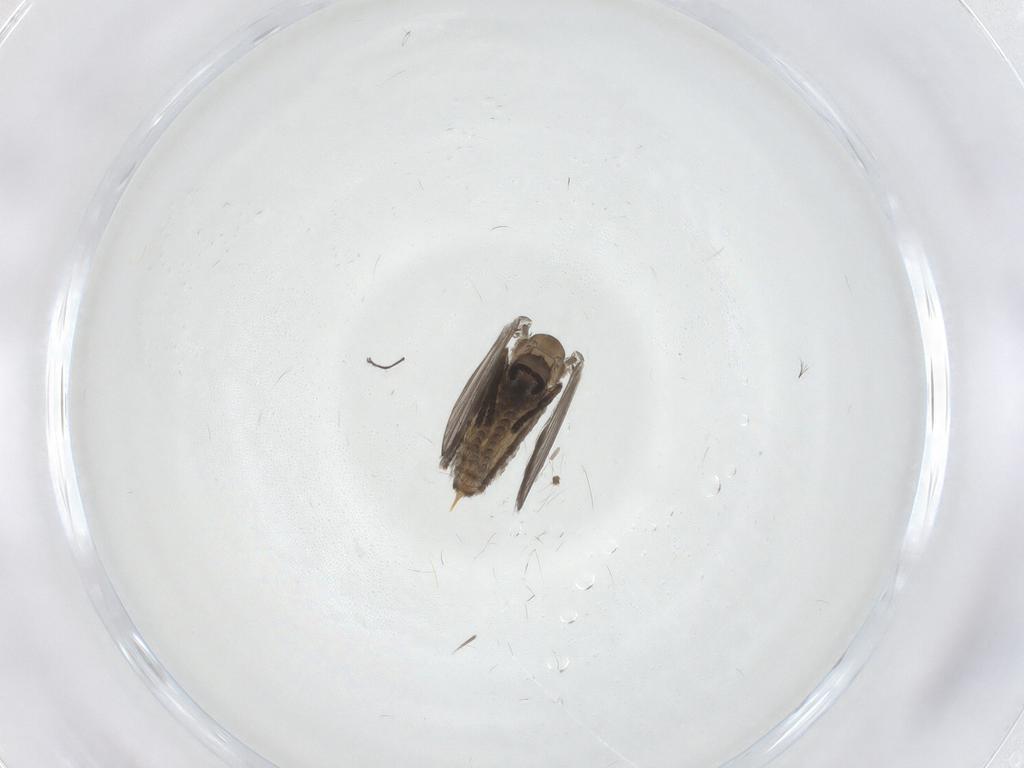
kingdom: Animalia
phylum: Arthropoda
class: Insecta
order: Diptera
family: Psychodidae
